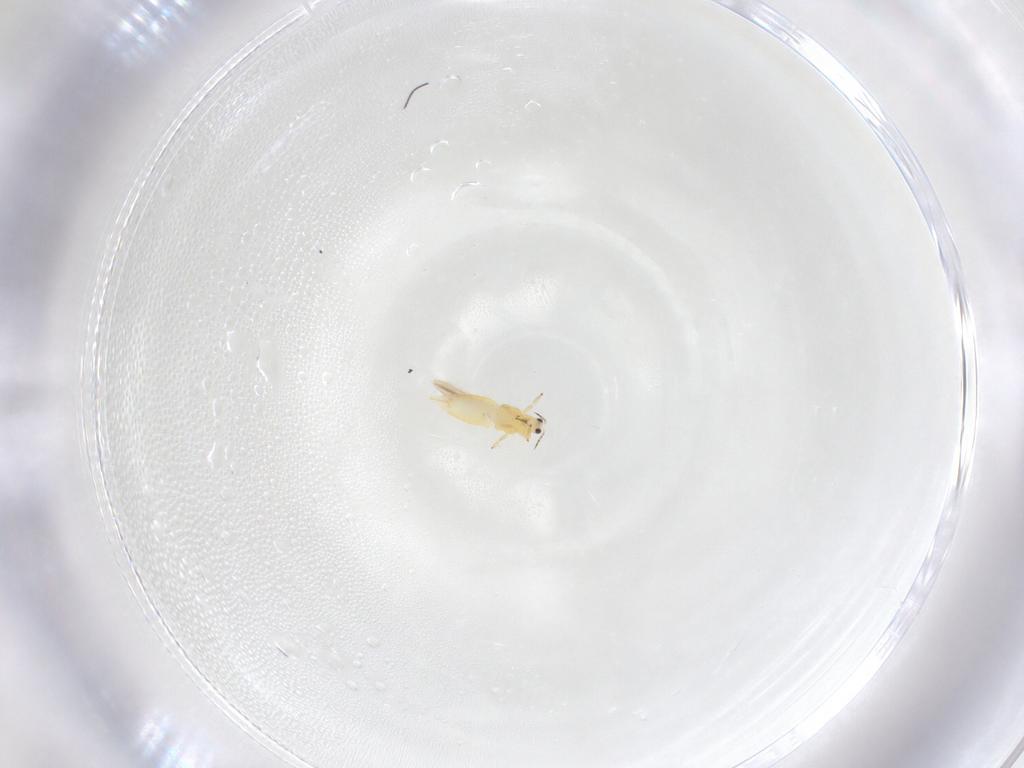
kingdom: Animalia
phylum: Arthropoda
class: Insecta
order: Thysanoptera
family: Thripidae
